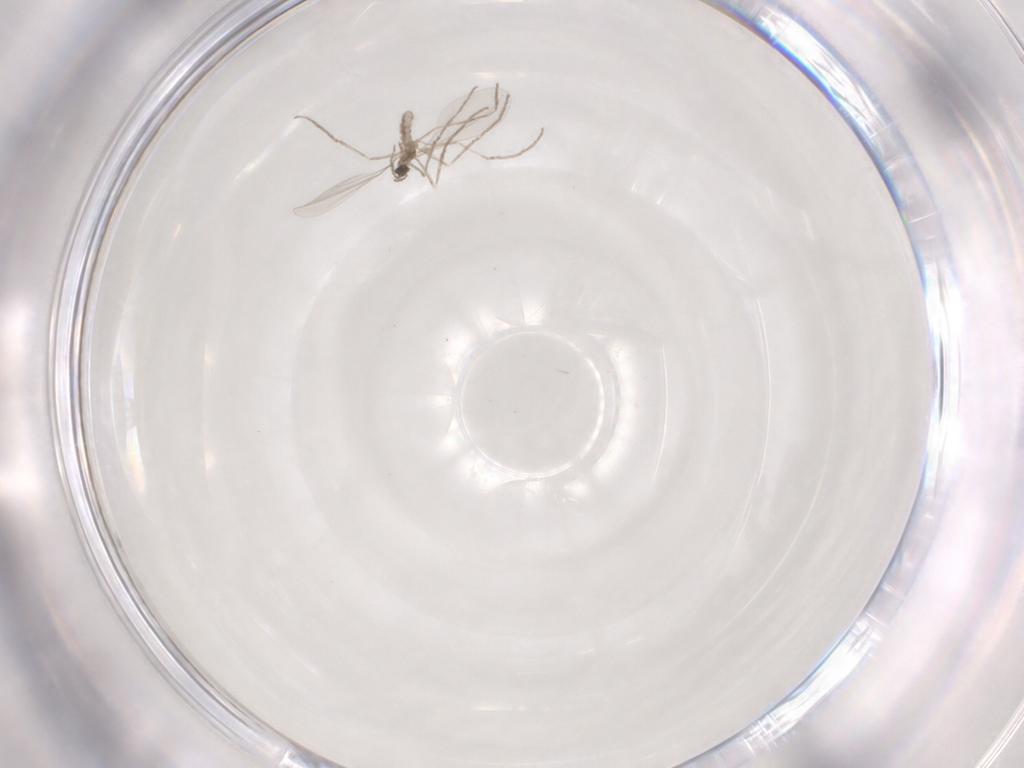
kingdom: Animalia
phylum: Arthropoda
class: Insecta
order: Diptera
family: Cecidomyiidae
